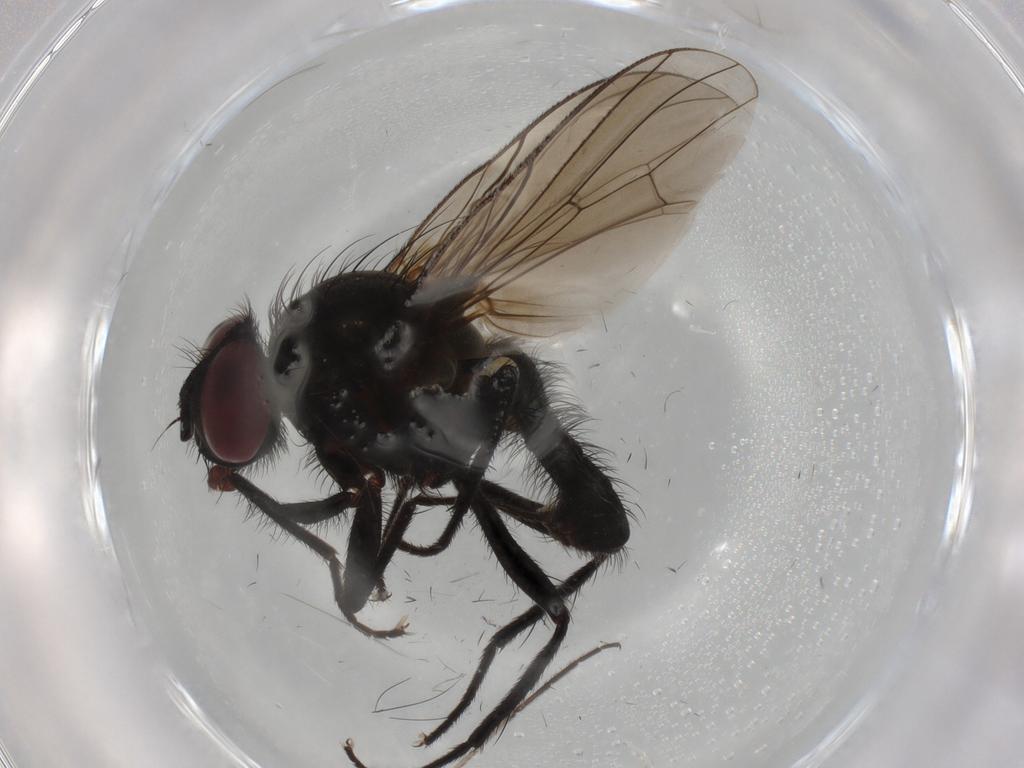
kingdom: Animalia
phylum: Arthropoda
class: Insecta
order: Diptera
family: Anthomyiidae
